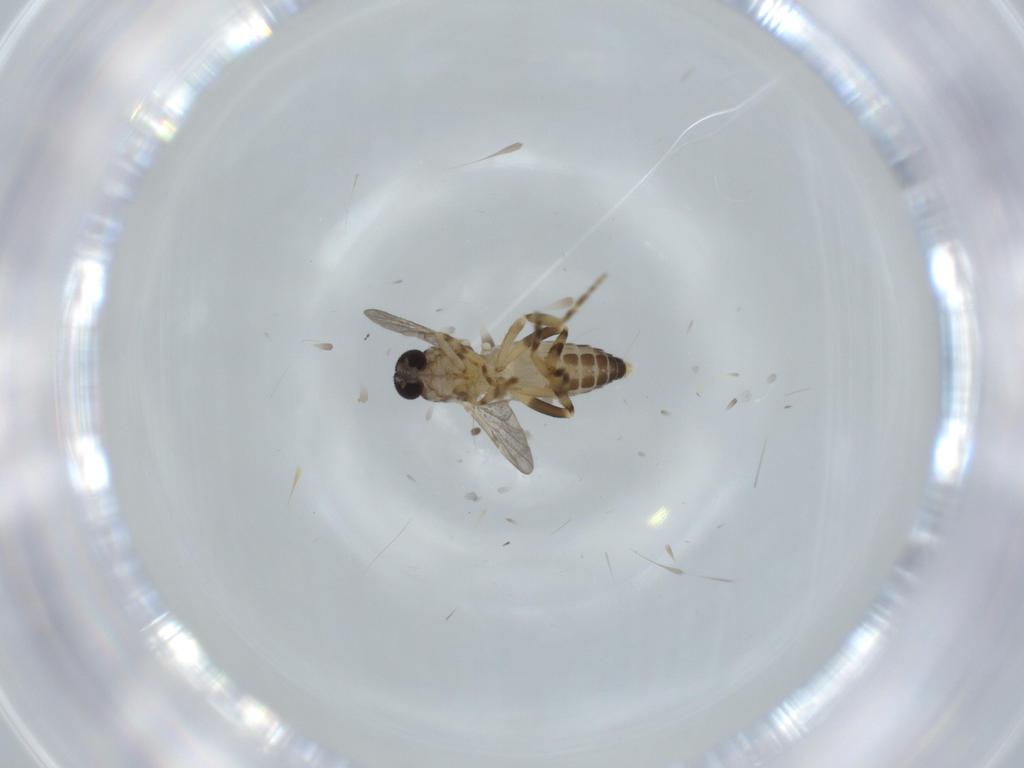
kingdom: Animalia
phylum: Arthropoda
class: Insecta
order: Diptera
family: Ceratopogonidae
